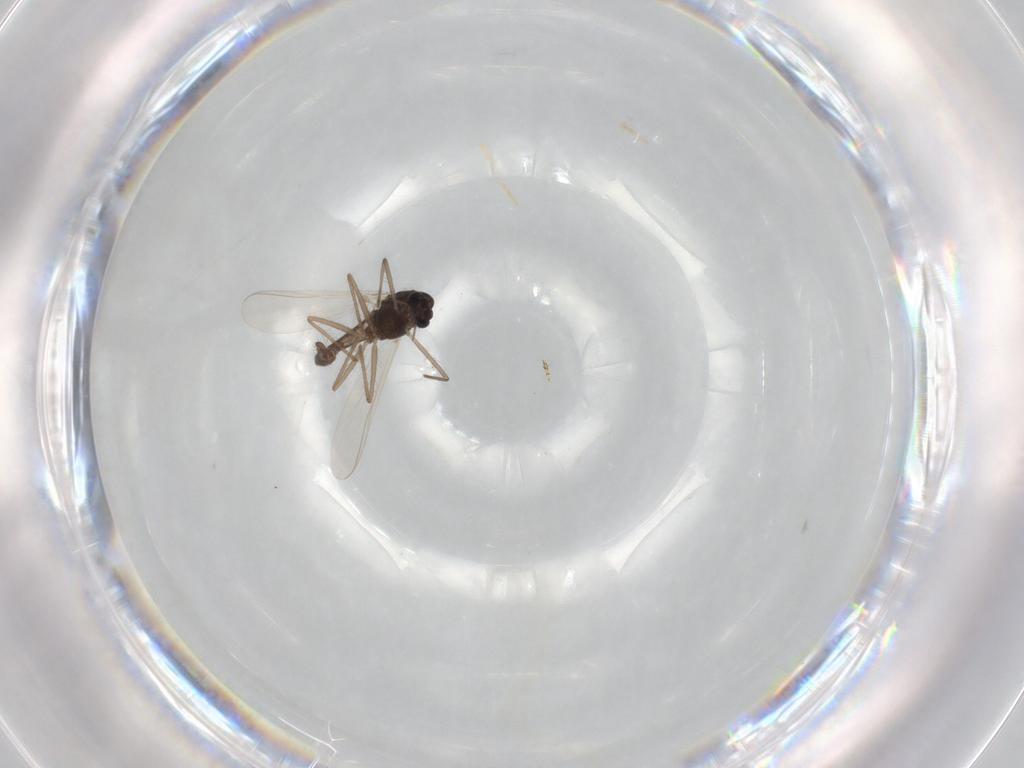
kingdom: Animalia
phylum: Arthropoda
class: Insecta
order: Diptera
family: Chironomidae
